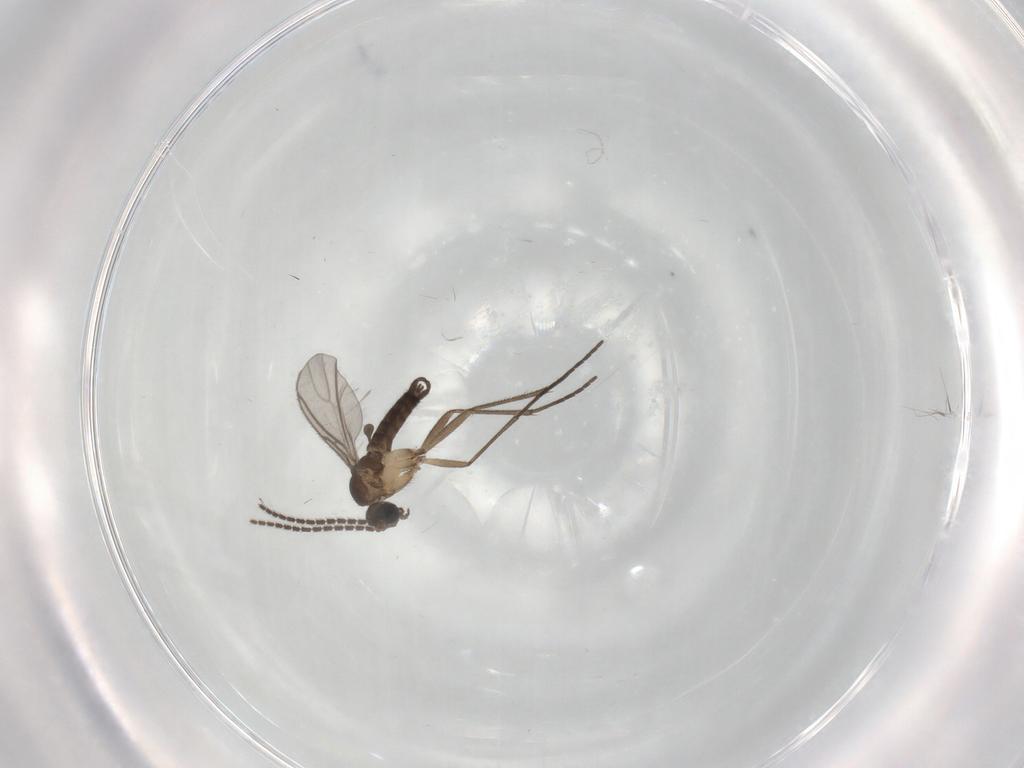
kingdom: Animalia
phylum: Arthropoda
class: Insecta
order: Diptera
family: Sciaridae
